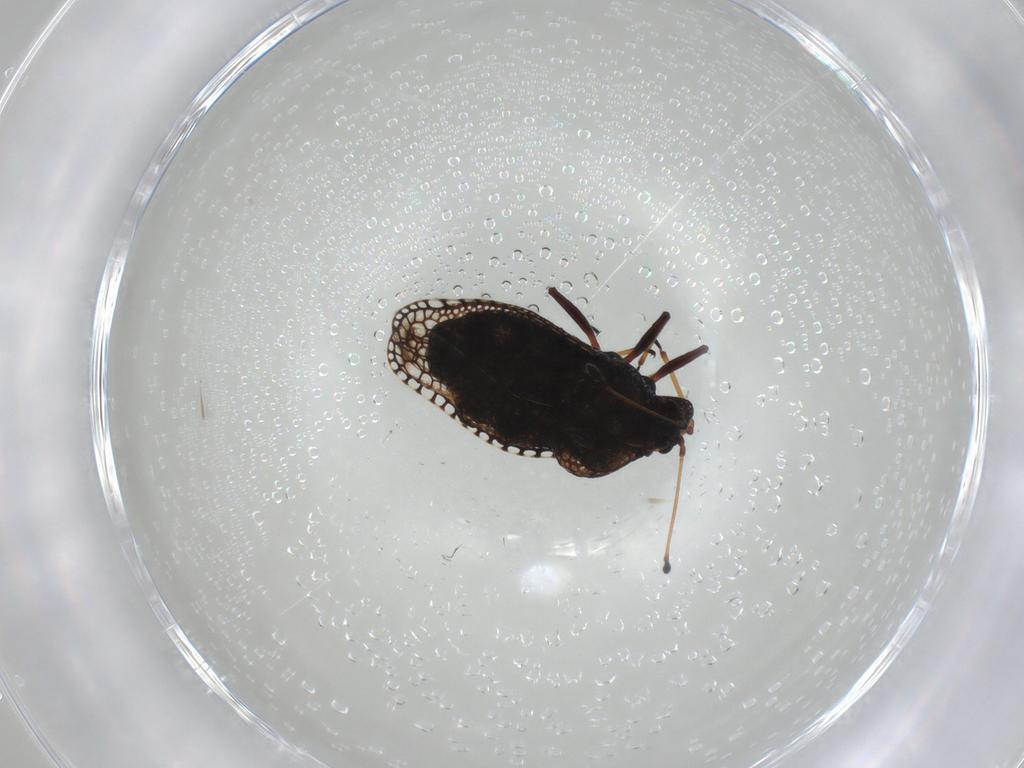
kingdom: Animalia
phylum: Arthropoda
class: Insecta
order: Hemiptera
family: Tingidae
